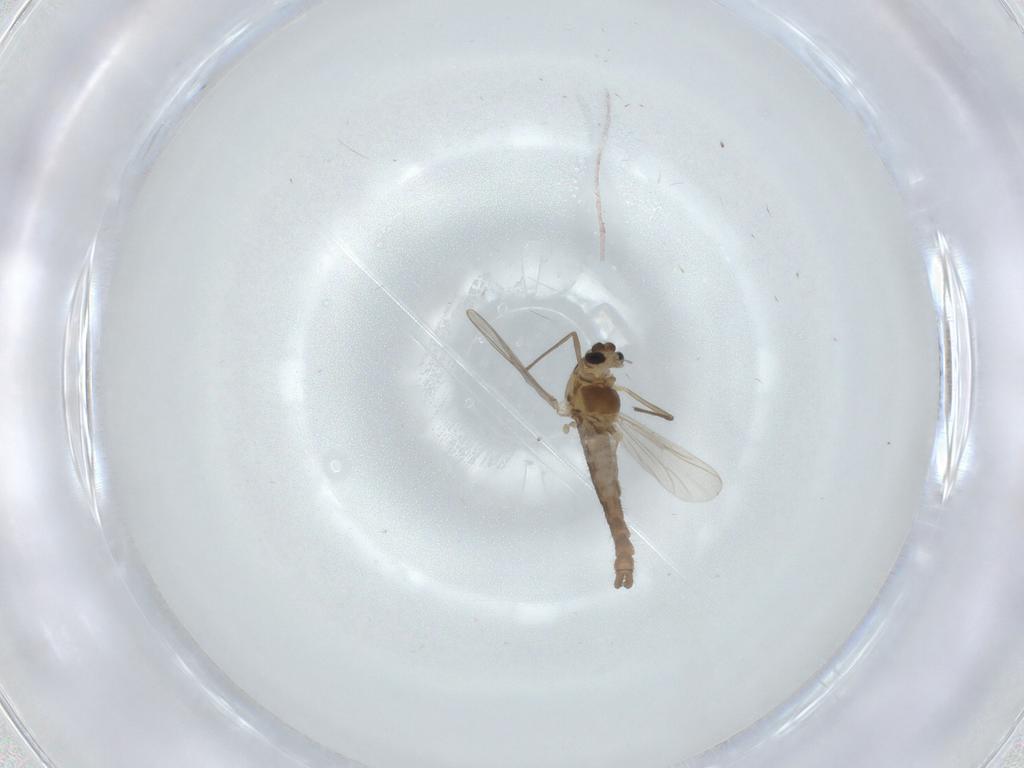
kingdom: Animalia
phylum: Arthropoda
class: Insecta
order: Diptera
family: Chironomidae
